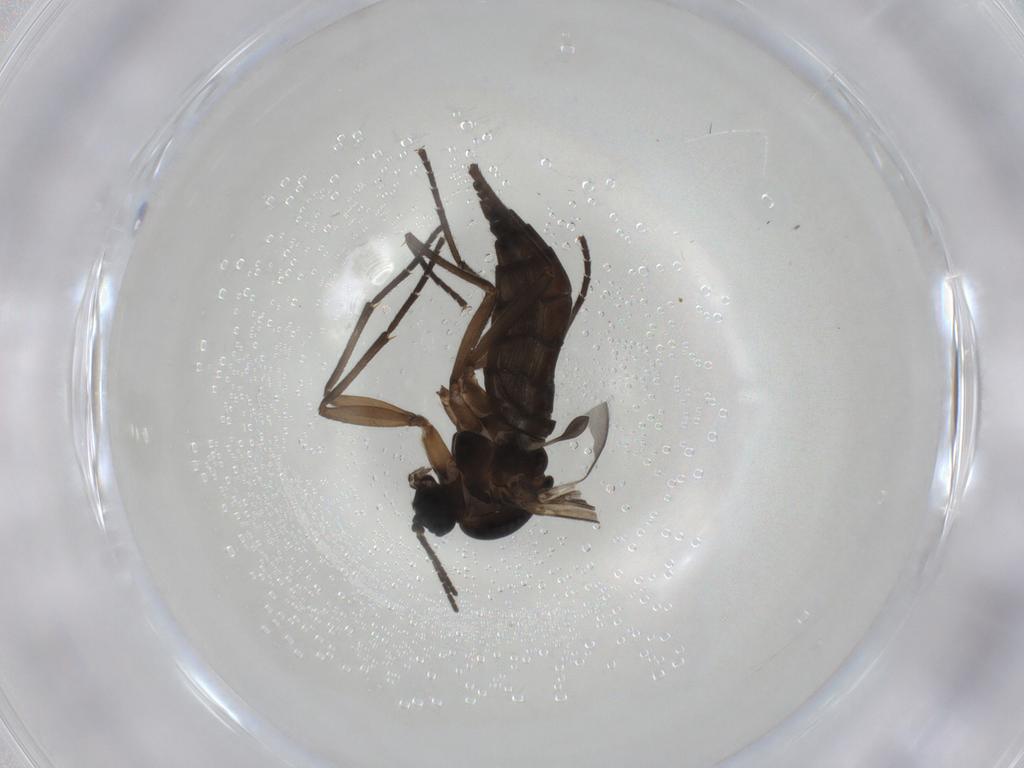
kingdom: Animalia
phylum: Arthropoda
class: Insecta
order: Diptera
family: Sciaridae
